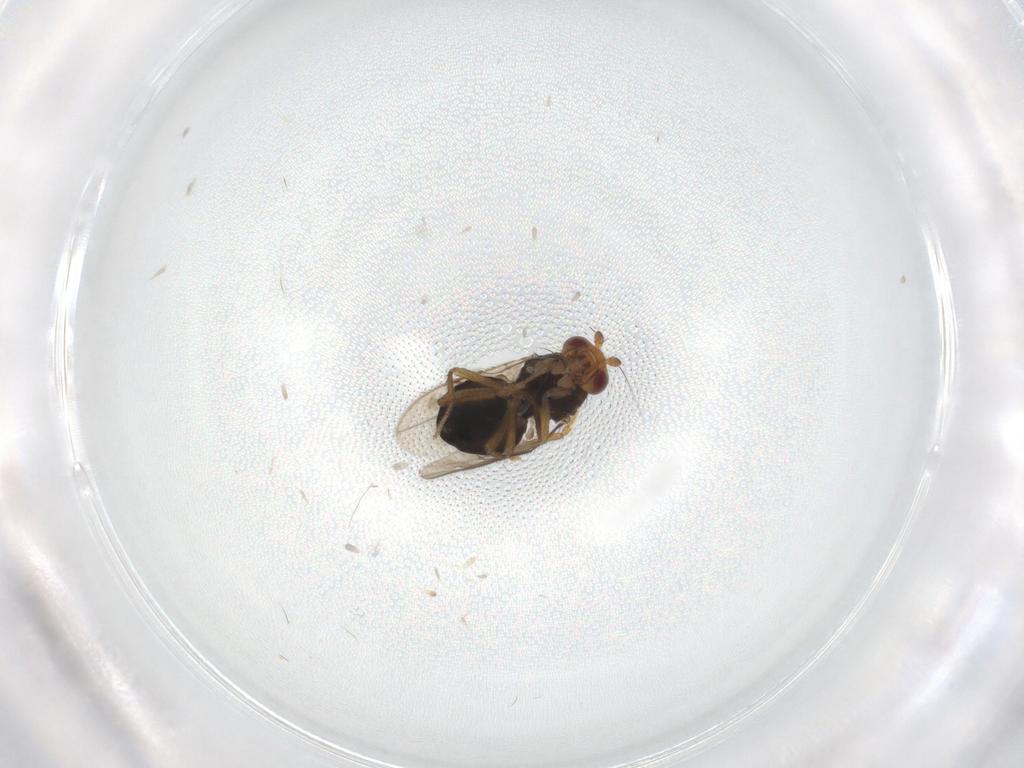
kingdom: Animalia
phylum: Arthropoda
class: Insecta
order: Diptera
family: Sphaeroceridae
